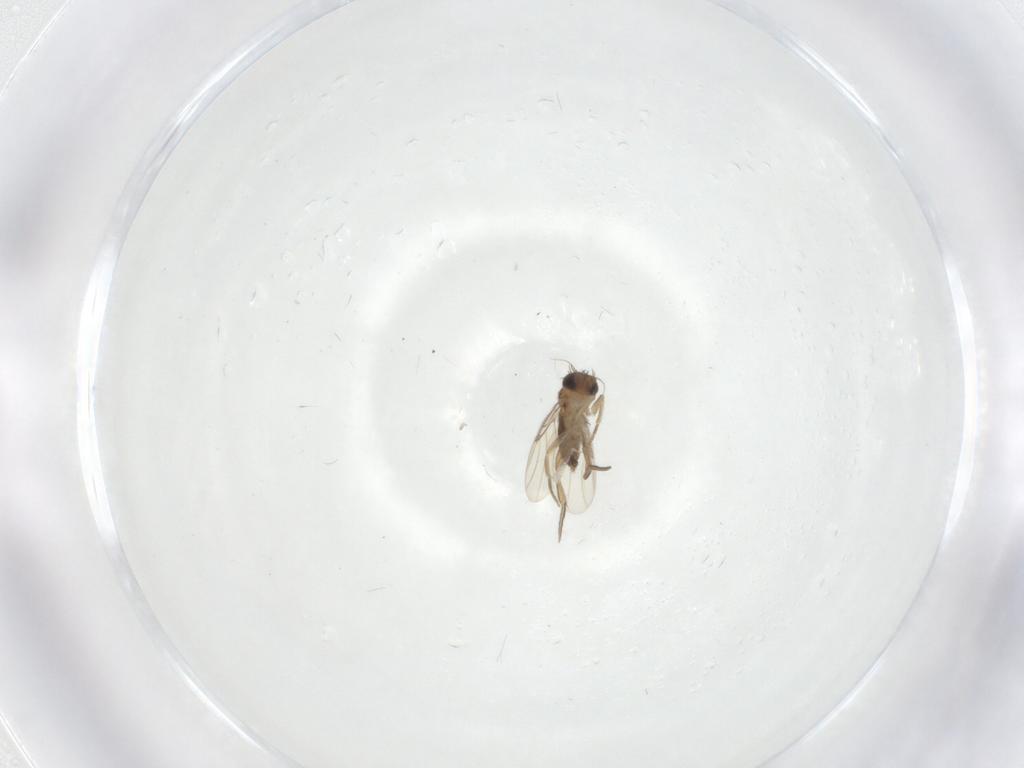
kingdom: Animalia
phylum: Arthropoda
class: Insecta
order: Diptera
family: Phoridae
